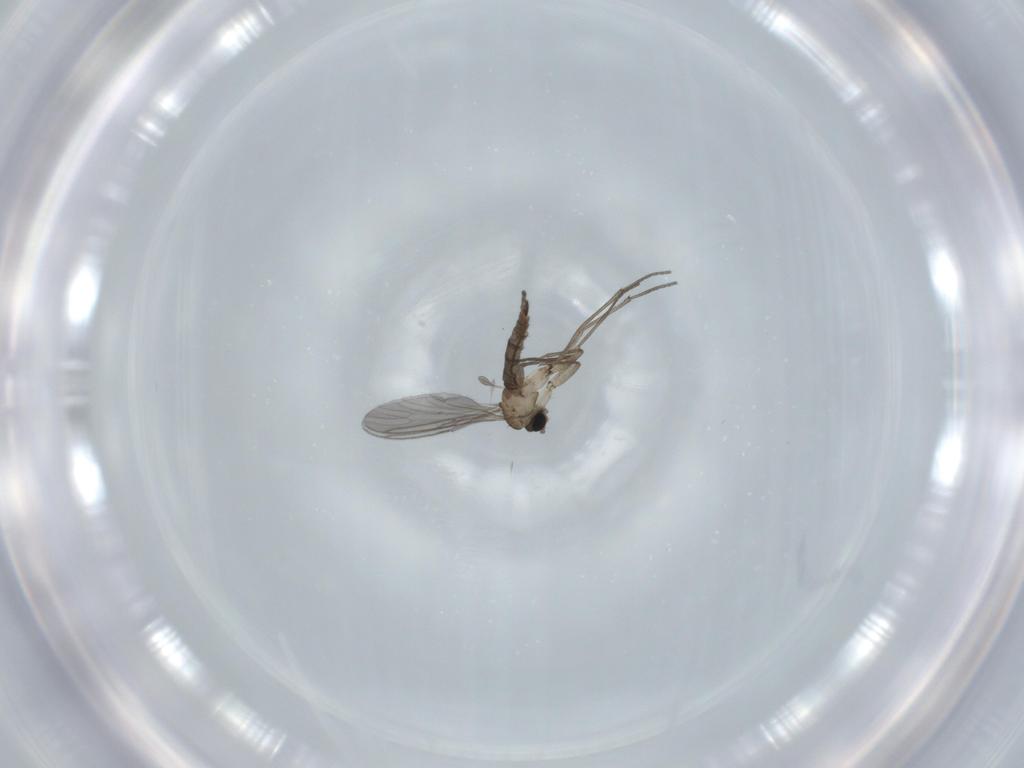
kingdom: Animalia
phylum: Arthropoda
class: Insecta
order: Diptera
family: Sciaridae
